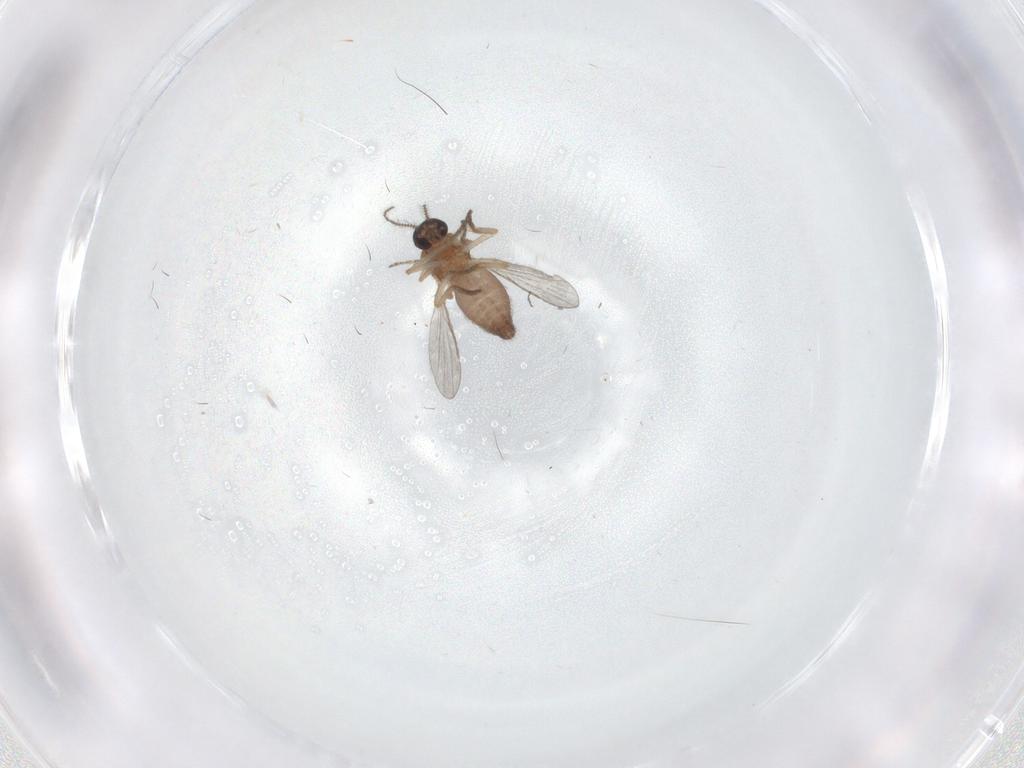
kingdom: Animalia
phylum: Arthropoda
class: Insecta
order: Diptera
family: Ceratopogonidae
